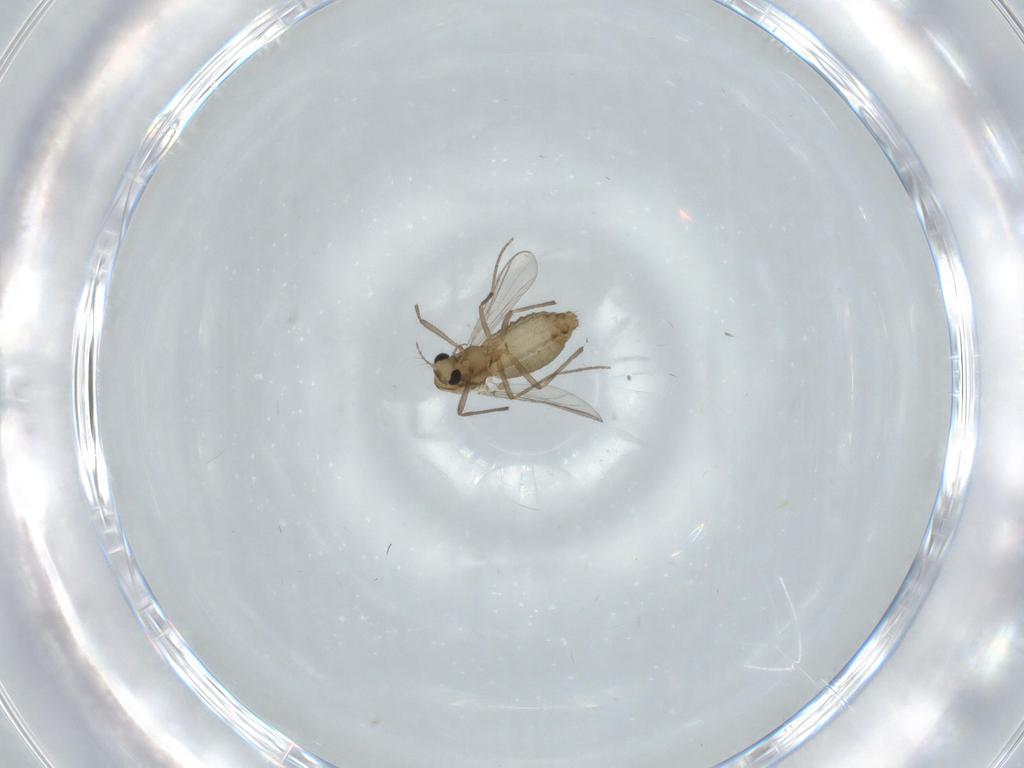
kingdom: Animalia
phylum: Arthropoda
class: Insecta
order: Diptera
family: Chironomidae
